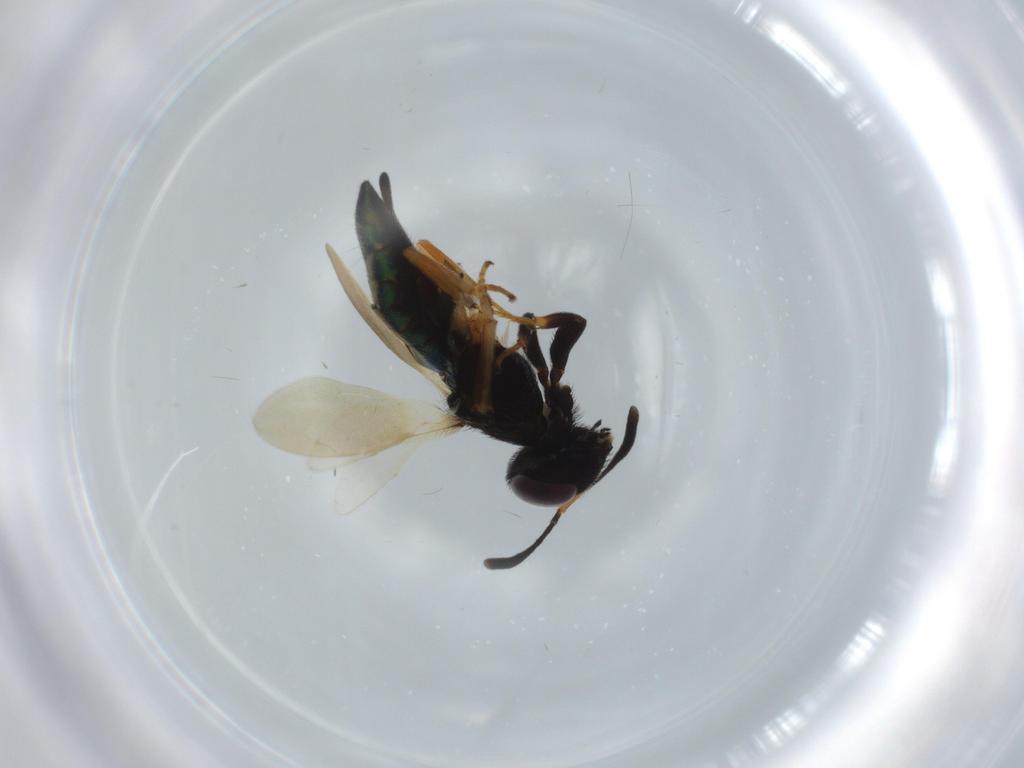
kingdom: Animalia
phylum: Arthropoda
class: Insecta
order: Hymenoptera
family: Eupelmidae
